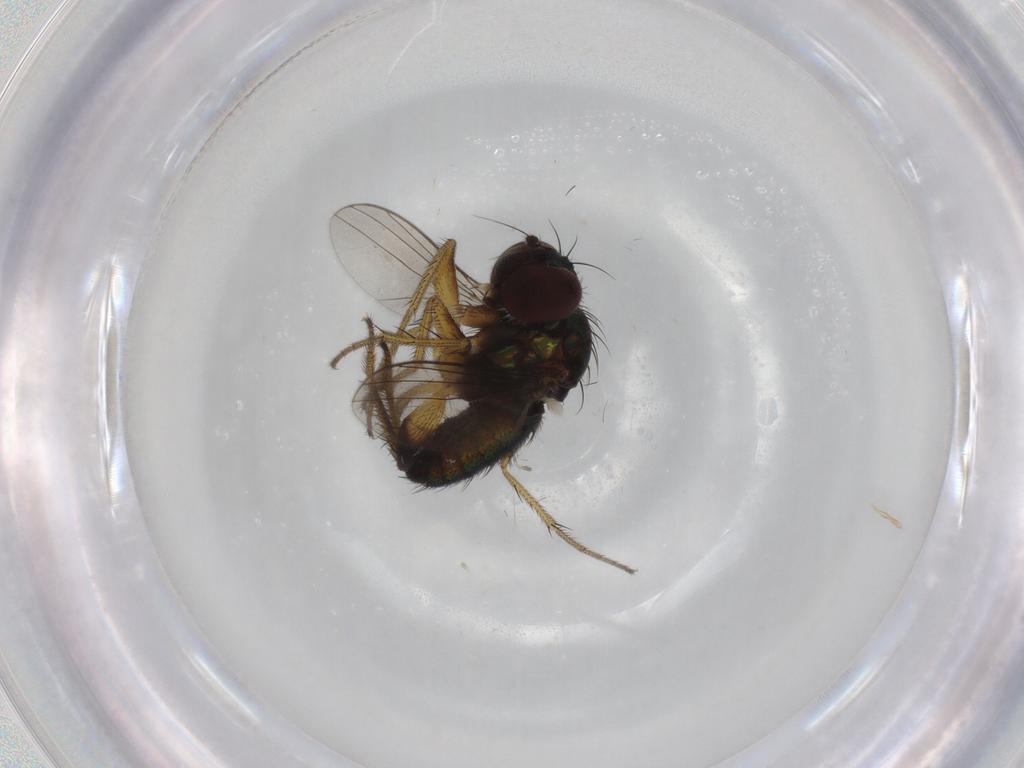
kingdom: Animalia
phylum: Arthropoda
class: Insecta
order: Diptera
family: Dolichopodidae
